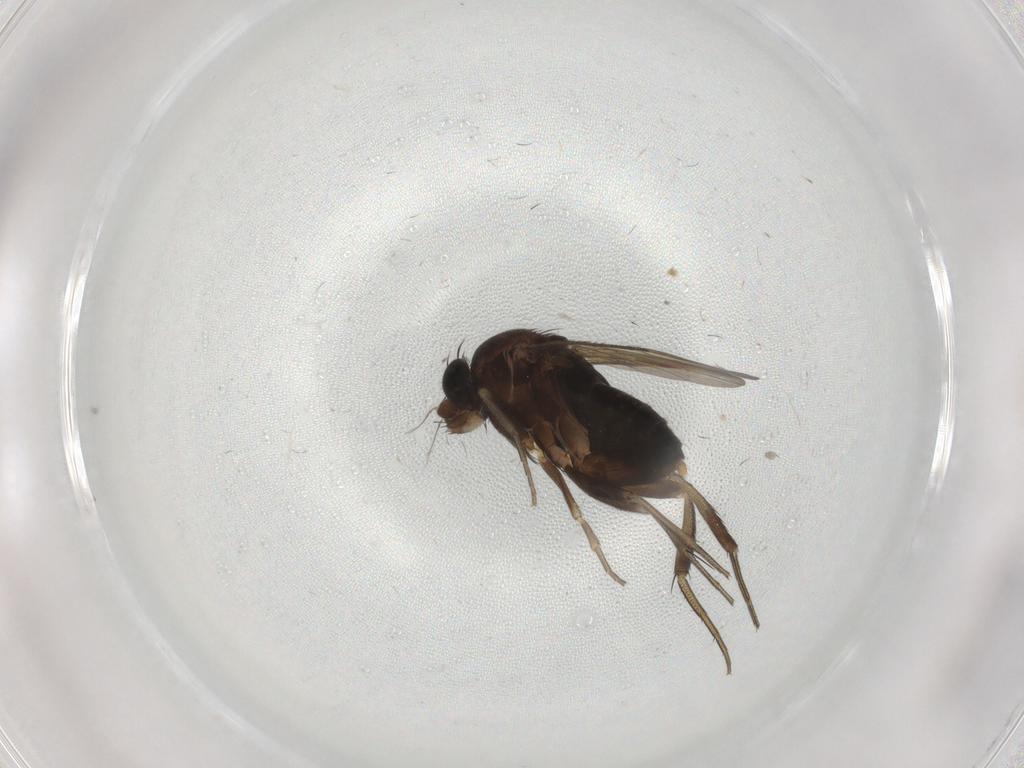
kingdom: Animalia
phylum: Arthropoda
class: Insecta
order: Diptera
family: Phoridae
